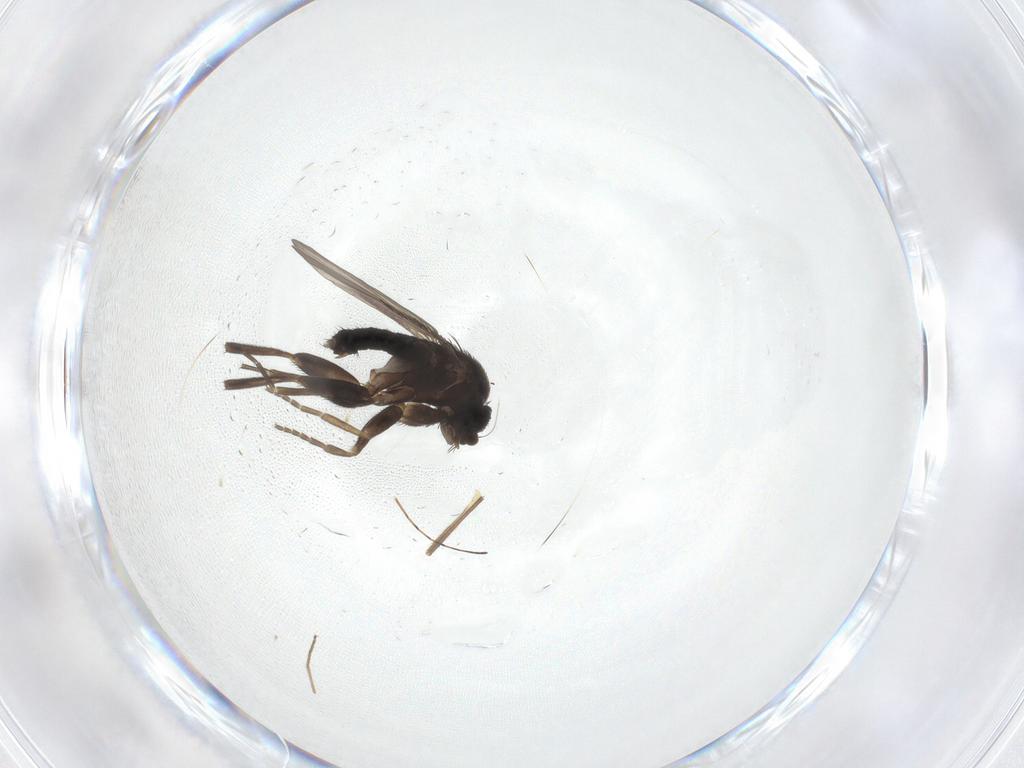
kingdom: Animalia
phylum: Arthropoda
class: Insecta
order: Diptera
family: Phoridae
